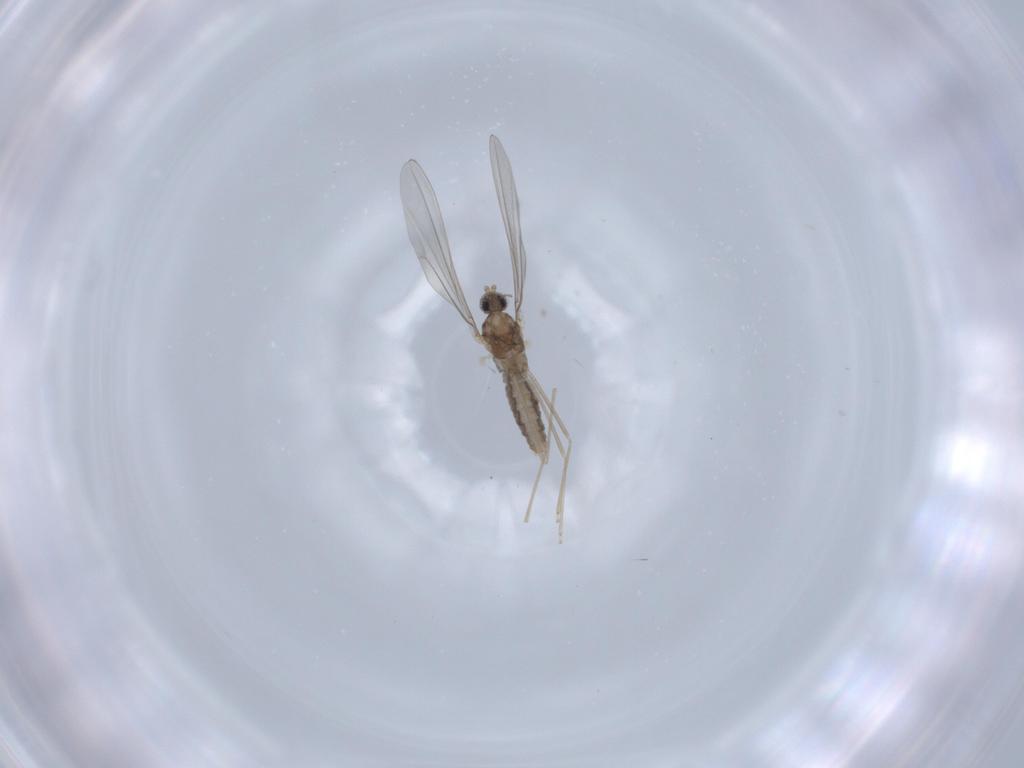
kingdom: Animalia
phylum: Arthropoda
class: Insecta
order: Diptera
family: Cecidomyiidae
